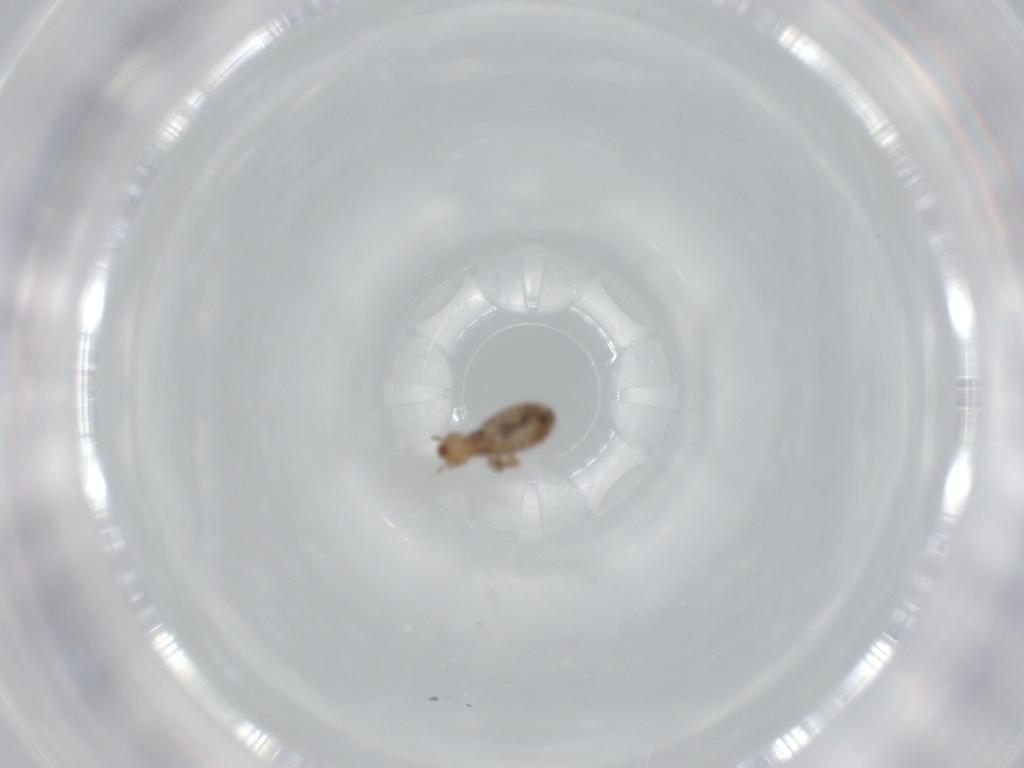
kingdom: Animalia
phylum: Arthropoda
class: Insecta
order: Psocodea
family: Liposcelididae
